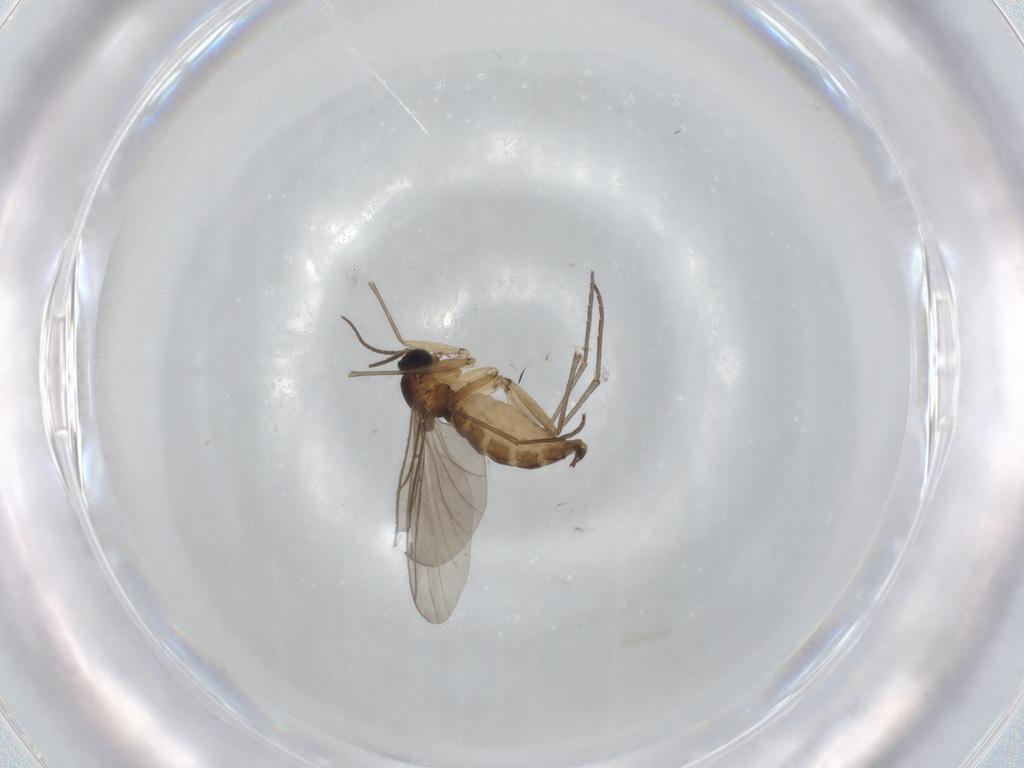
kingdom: Animalia
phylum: Arthropoda
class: Insecta
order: Diptera
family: Sciaridae
